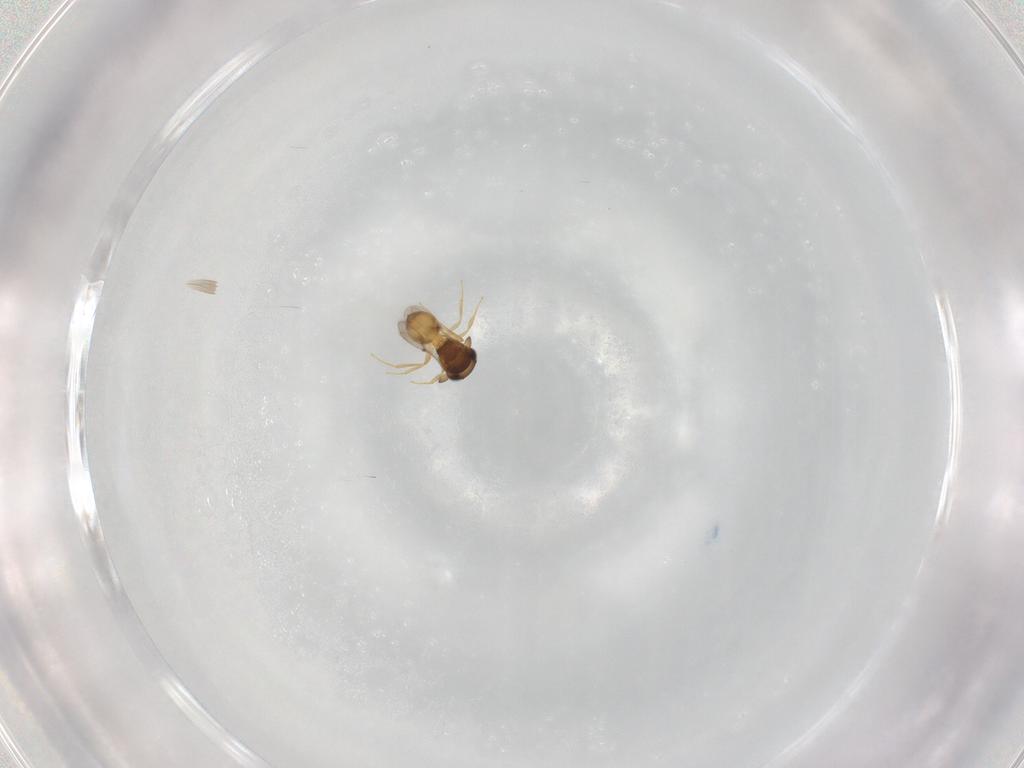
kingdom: Animalia
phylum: Arthropoda
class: Insecta
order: Hymenoptera
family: Scelionidae
